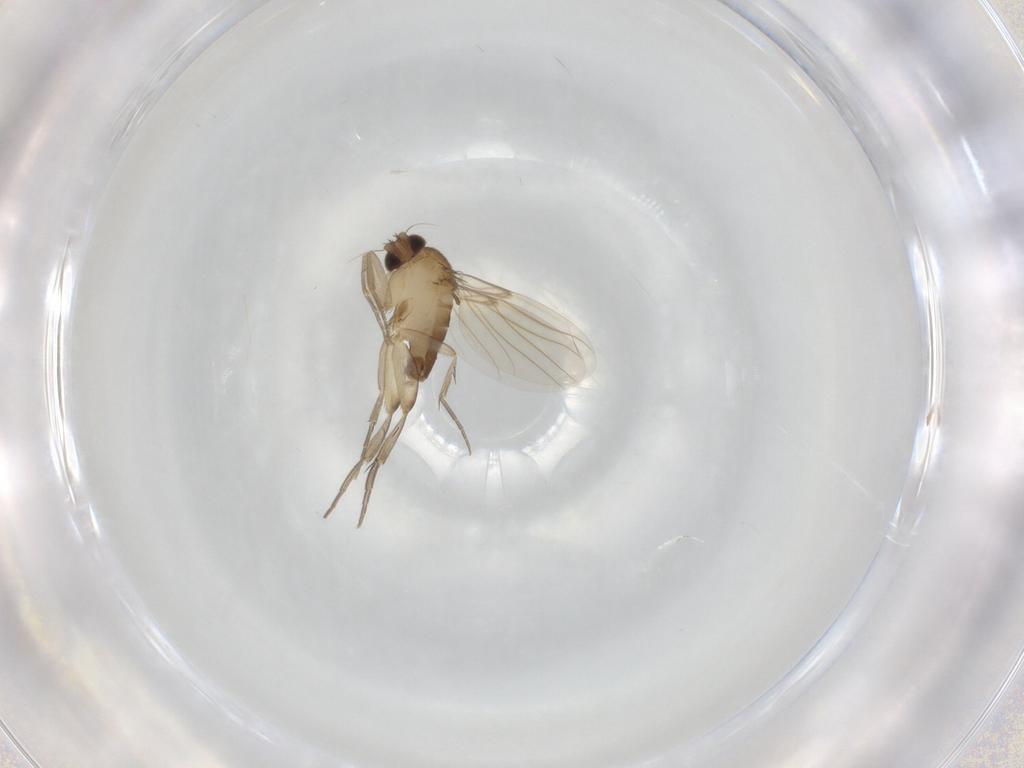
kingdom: Animalia
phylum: Arthropoda
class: Insecta
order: Diptera
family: Phoridae
